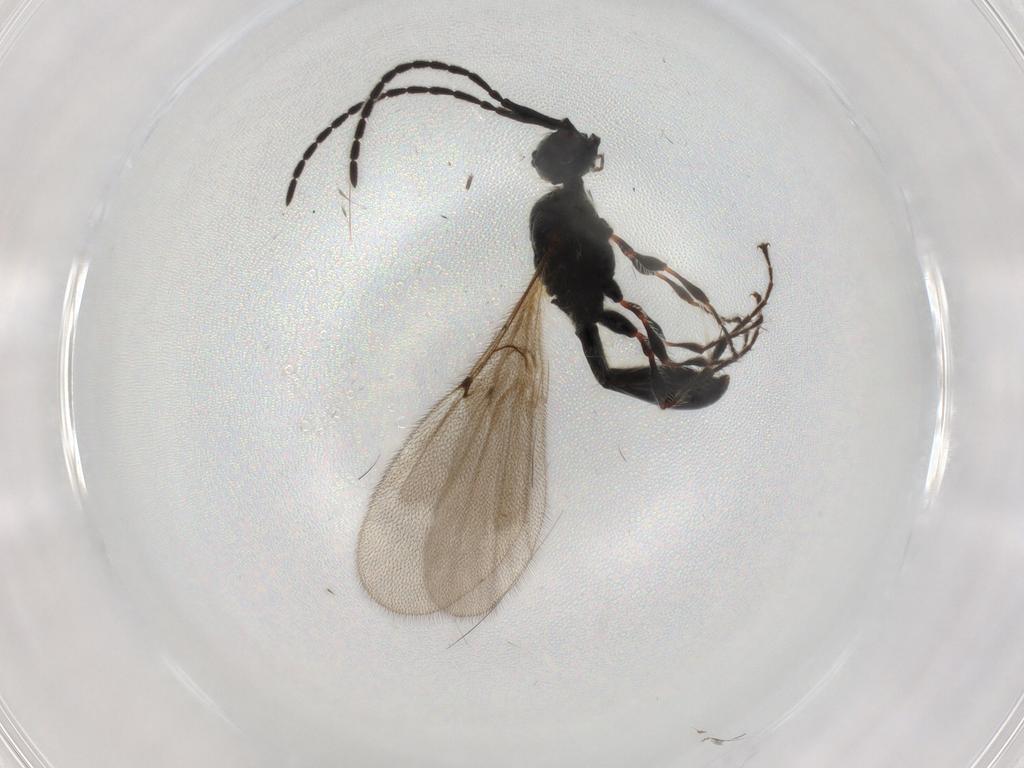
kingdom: Animalia
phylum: Arthropoda
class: Insecta
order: Hymenoptera
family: Diapriidae
